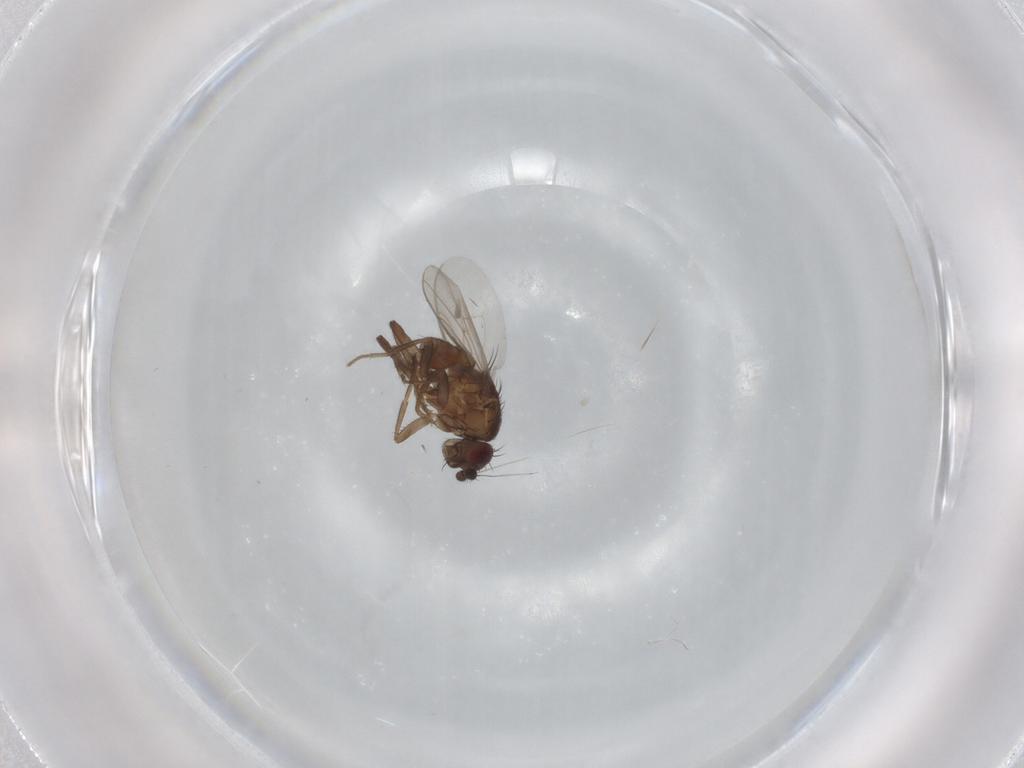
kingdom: Animalia
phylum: Arthropoda
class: Insecta
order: Diptera
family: Sphaeroceridae
